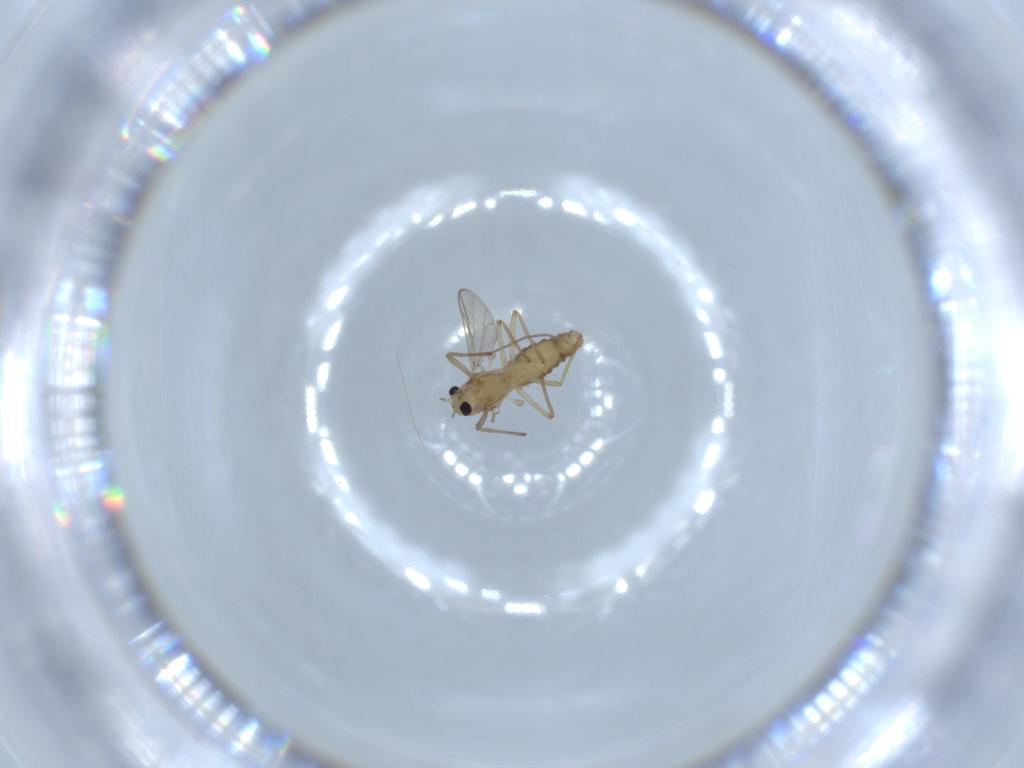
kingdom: Animalia
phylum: Arthropoda
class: Insecta
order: Diptera
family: Chironomidae
